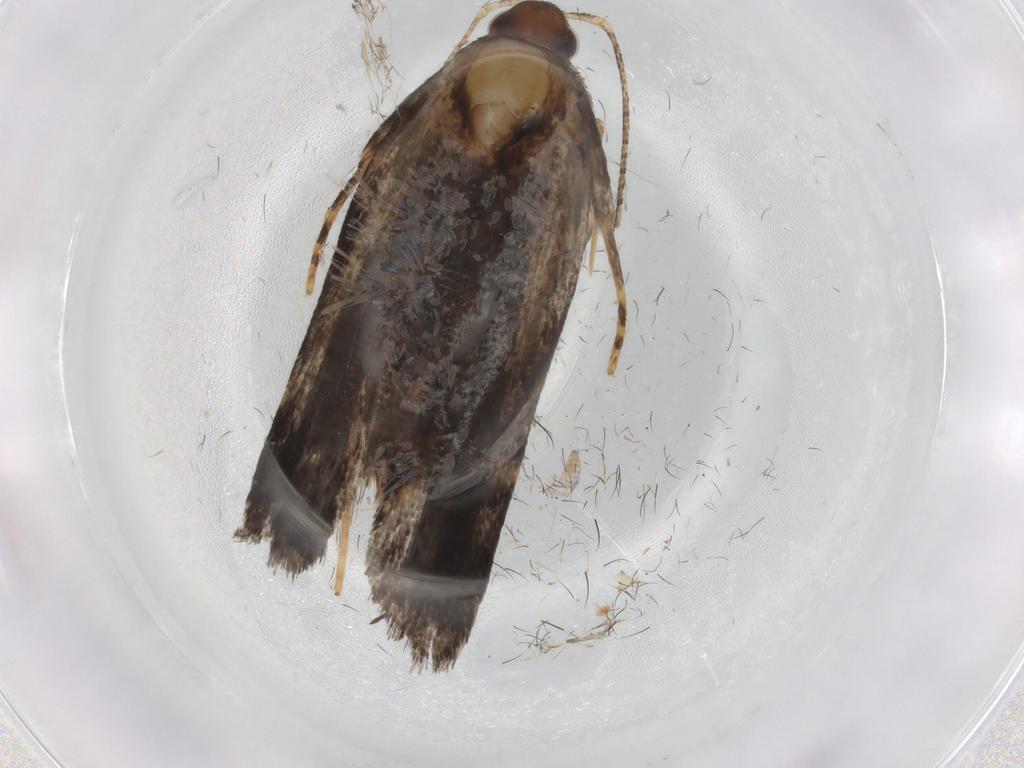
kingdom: Animalia
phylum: Arthropoda
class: Insecta
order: Lepidoptera
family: Gelechiidae
